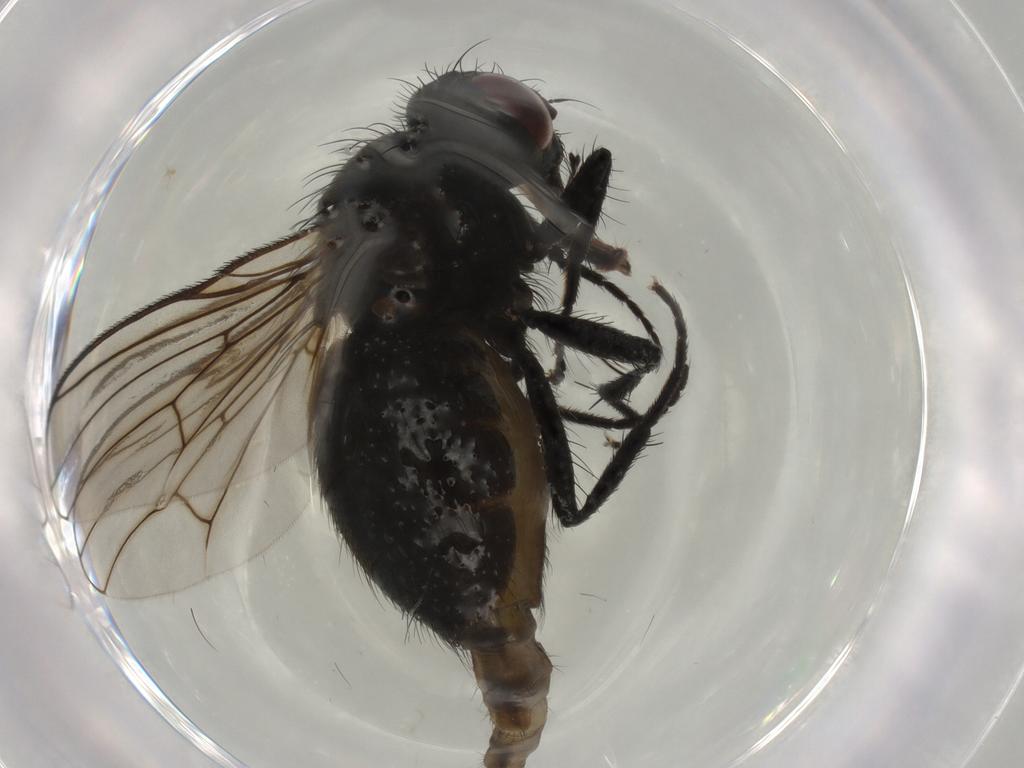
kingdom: Animalia
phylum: Arthropoda
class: Insecta
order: Diptera
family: Muscidae
